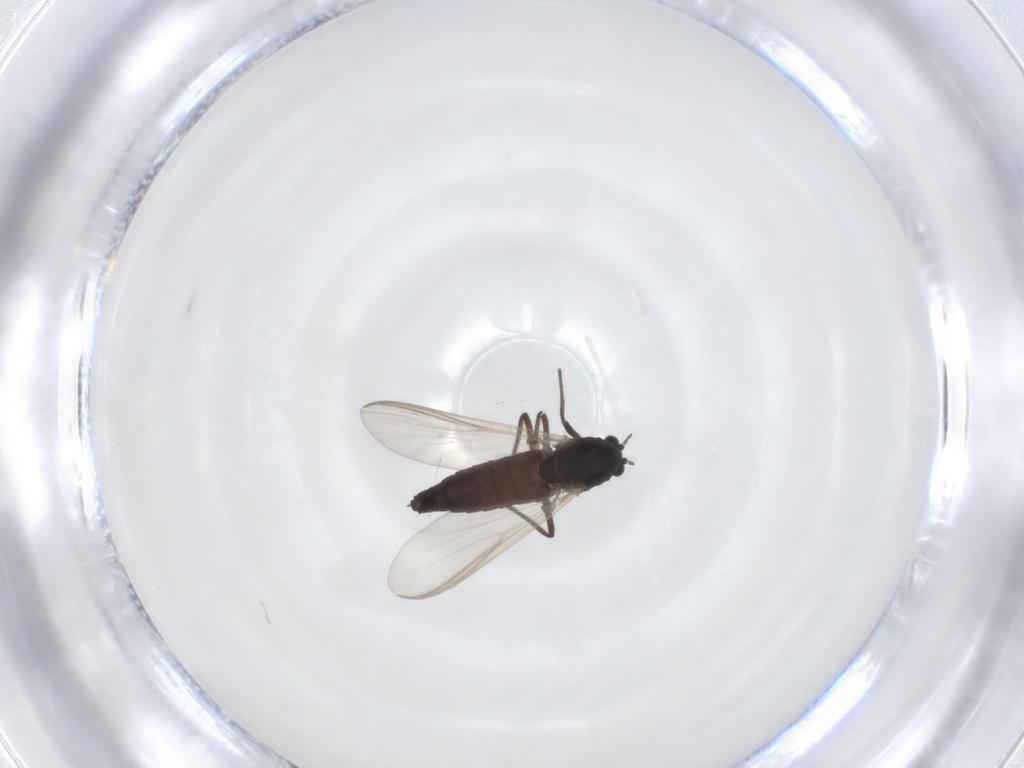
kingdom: Animalia
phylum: Arthropoda
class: Insecta
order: Diptera
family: Chironomidae
